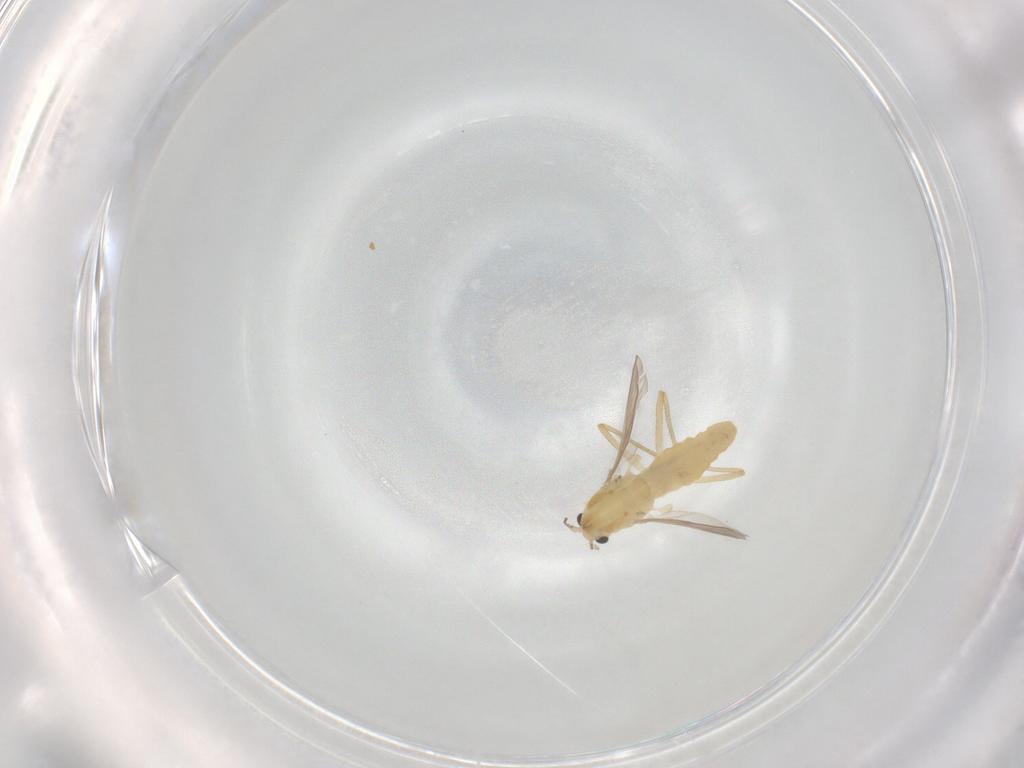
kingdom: Animalia
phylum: Arthropoda
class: Insecta
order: Diptera
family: Chironomidae
